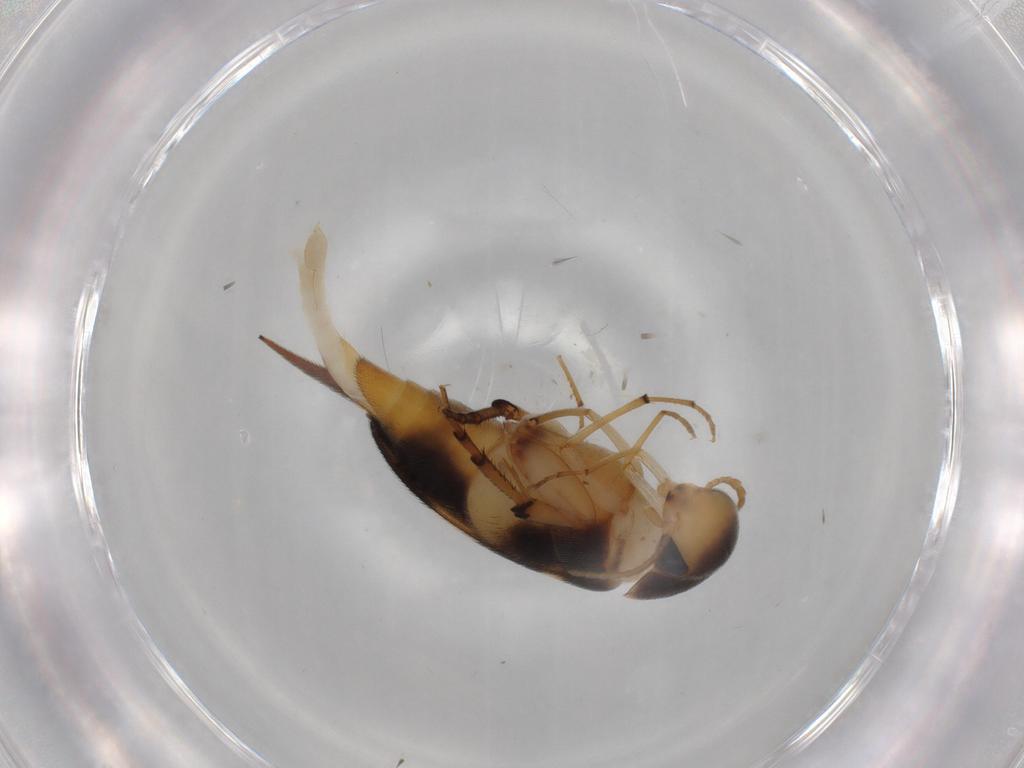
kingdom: Animalia
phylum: Arthropoda
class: Insecta
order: Coleoptera
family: Mordellidae
